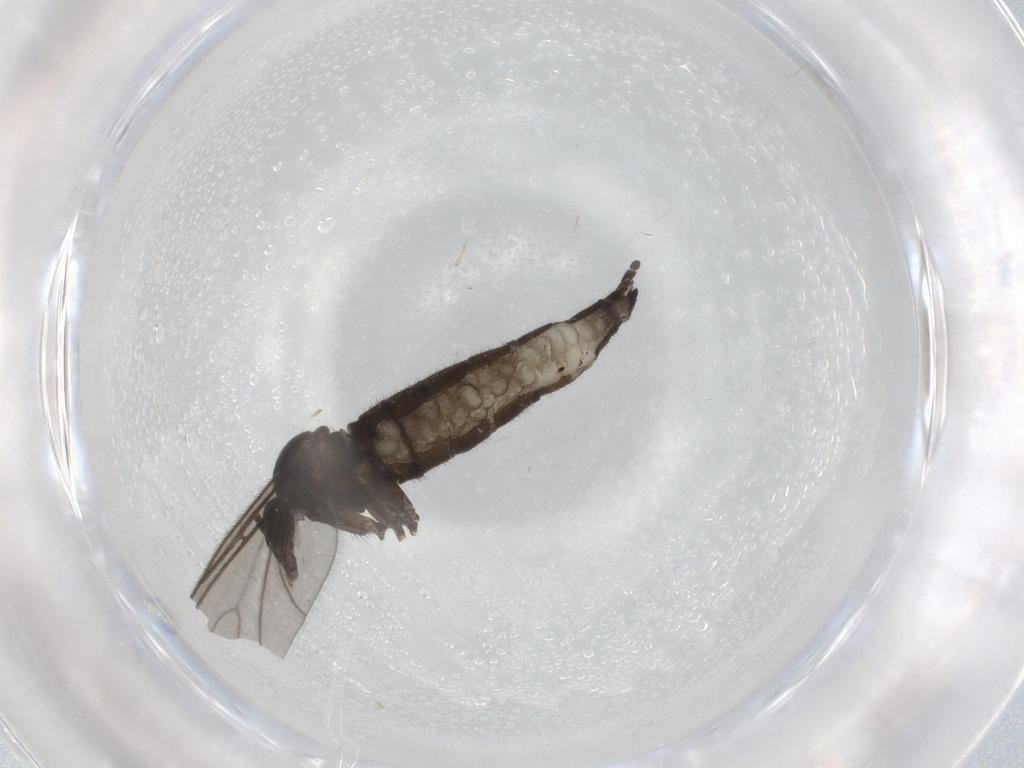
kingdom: Animalia
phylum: Arthropoda
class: Insecta
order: Diptera
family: Sciaridae
